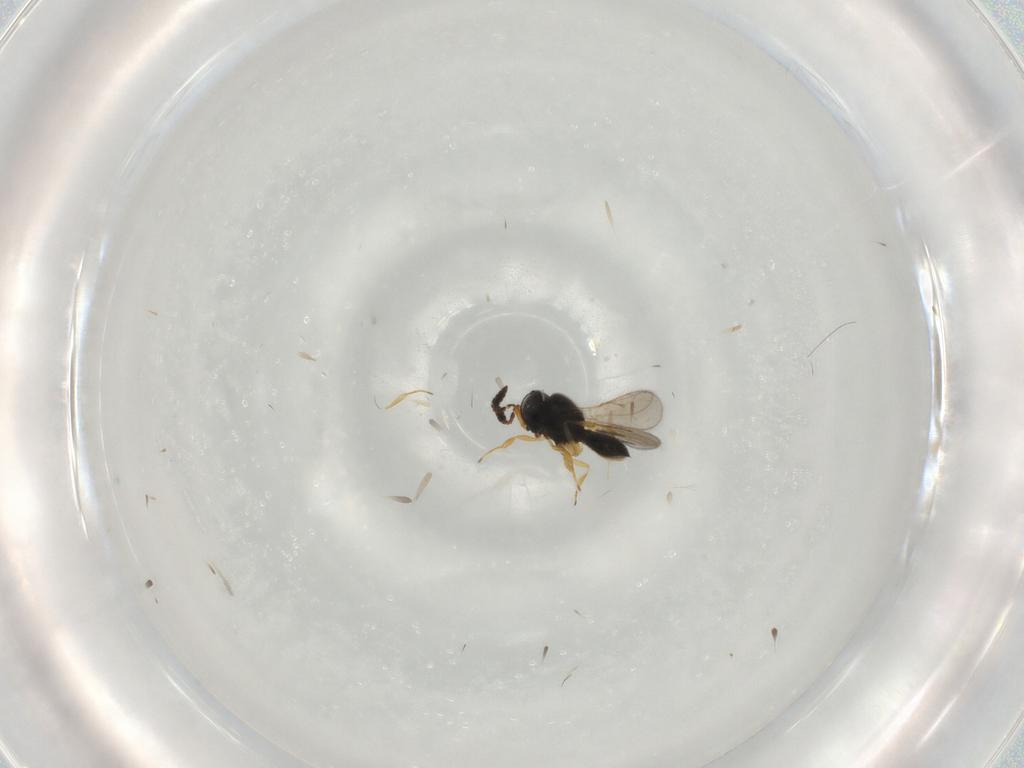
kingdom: Animalia
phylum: Arthropoda
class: Insecta
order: Hymenoptera
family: Scelionidae
